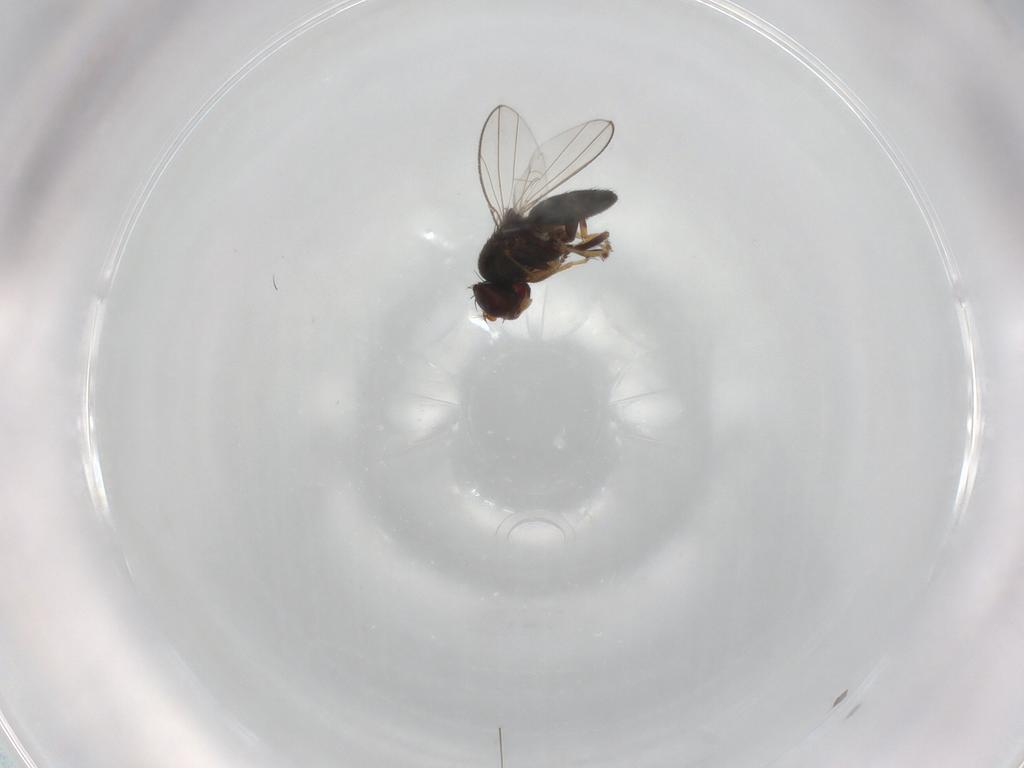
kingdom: Animalia
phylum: Arthropoda
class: Insecta
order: Diptera
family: Ephydridae
